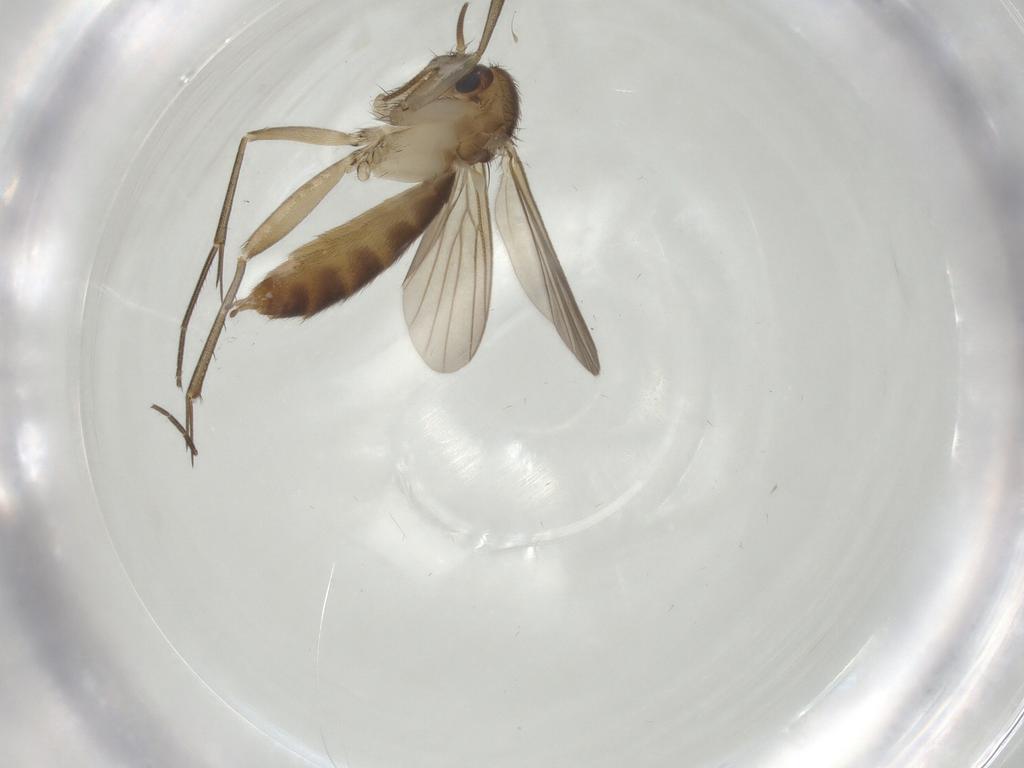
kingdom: Animalia
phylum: Arthropoda
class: Insecta
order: Diptera
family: Mycetophilidae
